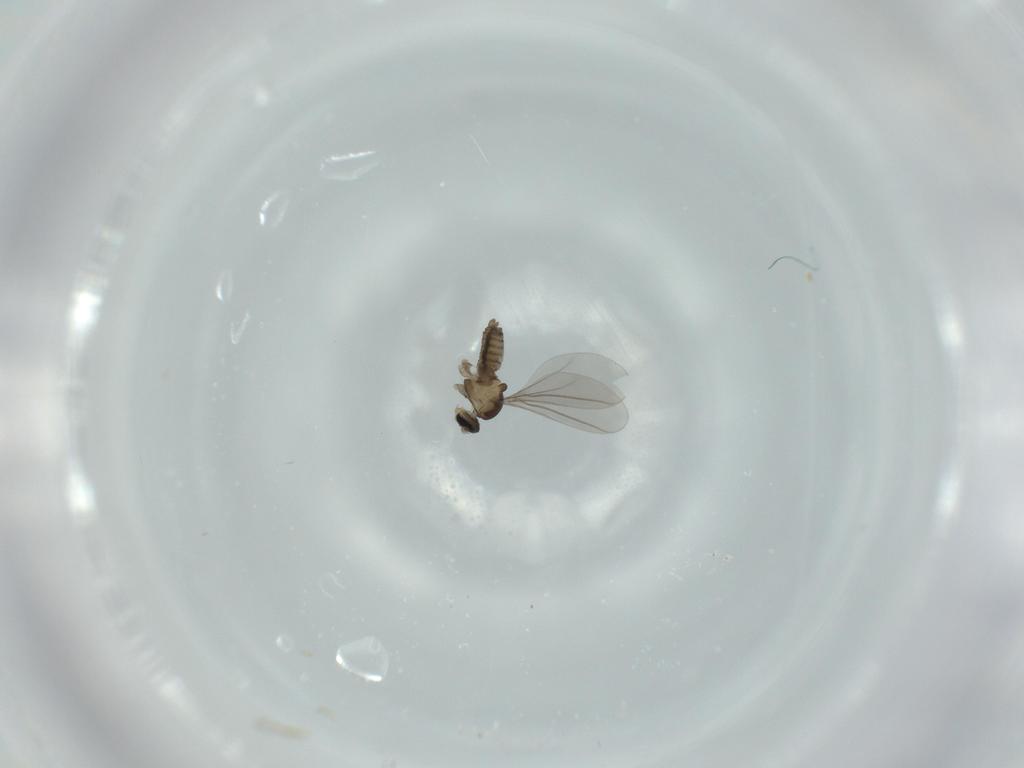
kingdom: Animalia
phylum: Arthropoda
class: Insecta
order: Diptera
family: Cecidomyiidae
